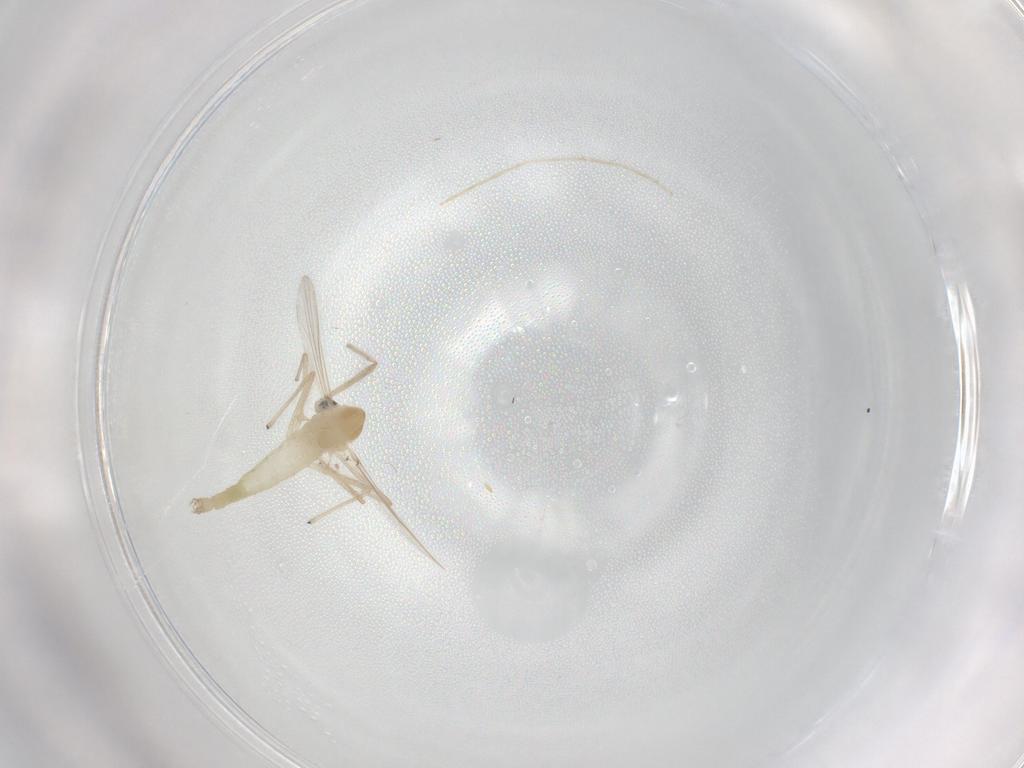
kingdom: Animalia
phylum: Arthropoda
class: Insecta
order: Diptera
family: Chironomidae
